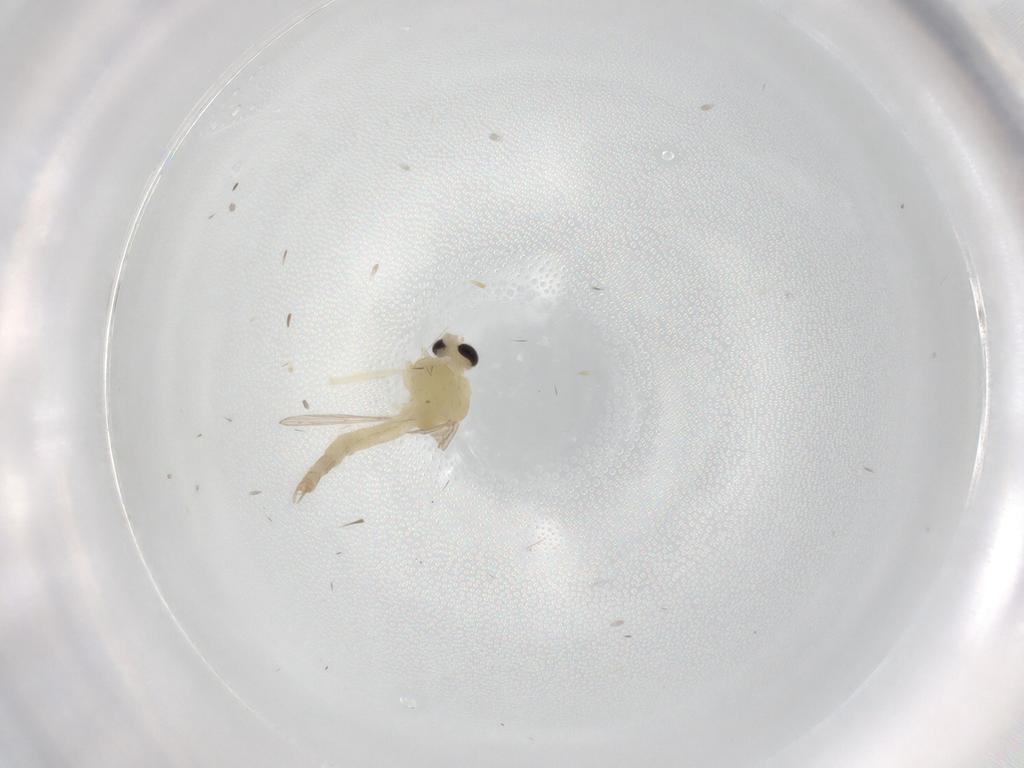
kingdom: Animalia
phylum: Arthropoda
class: Insecta
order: Diptera
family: Chironomidae
